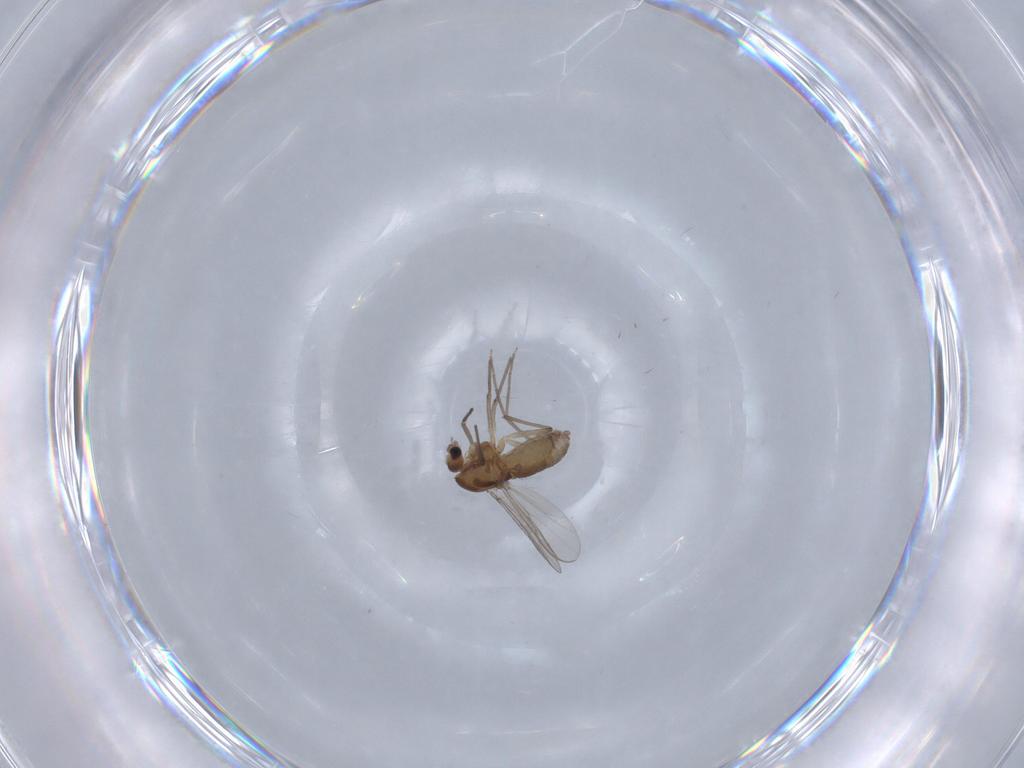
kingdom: Animalia
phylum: Arthropoda
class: Insecta
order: Diptera
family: Chironomidae
